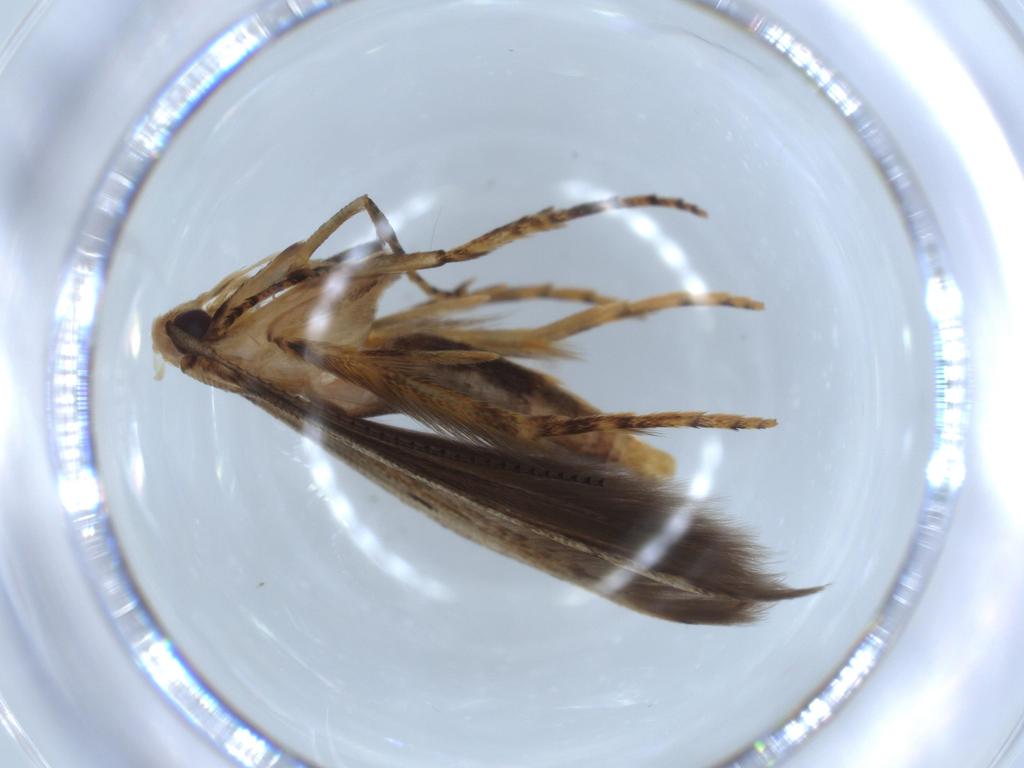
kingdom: Animalia
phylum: Arthropoda
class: Insecta
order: Lepidoptera
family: Heliodinidae
